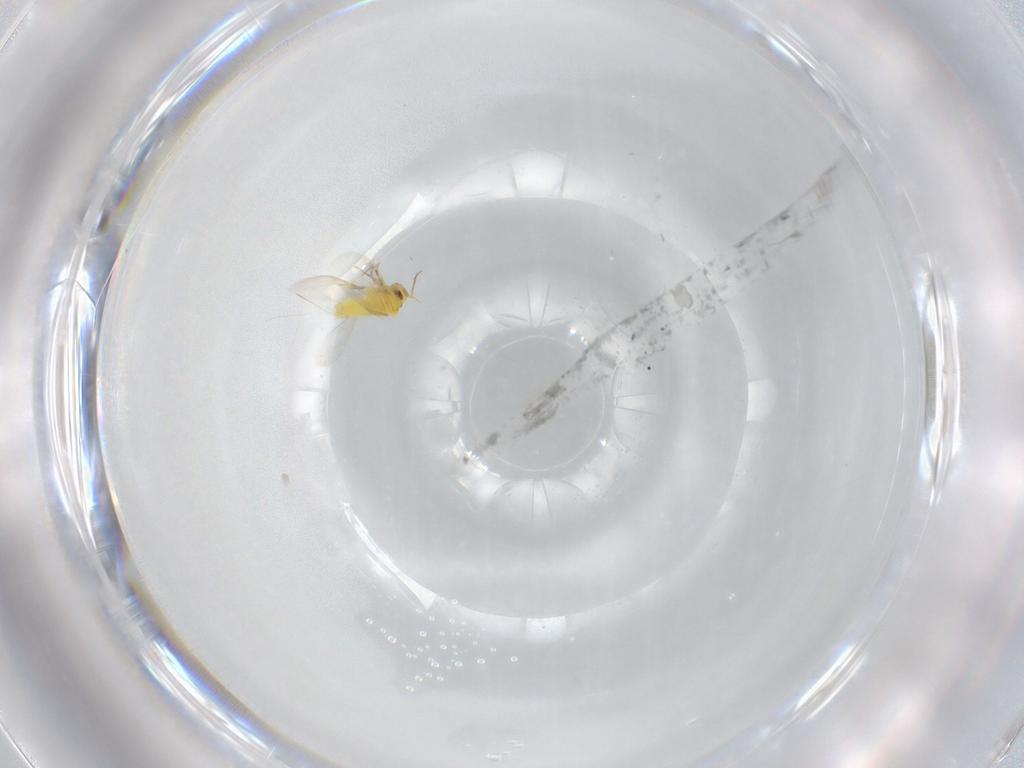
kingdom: Animalia
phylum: Arthropoda
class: Insecta
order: Hemiptera
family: Aleyrodidae
